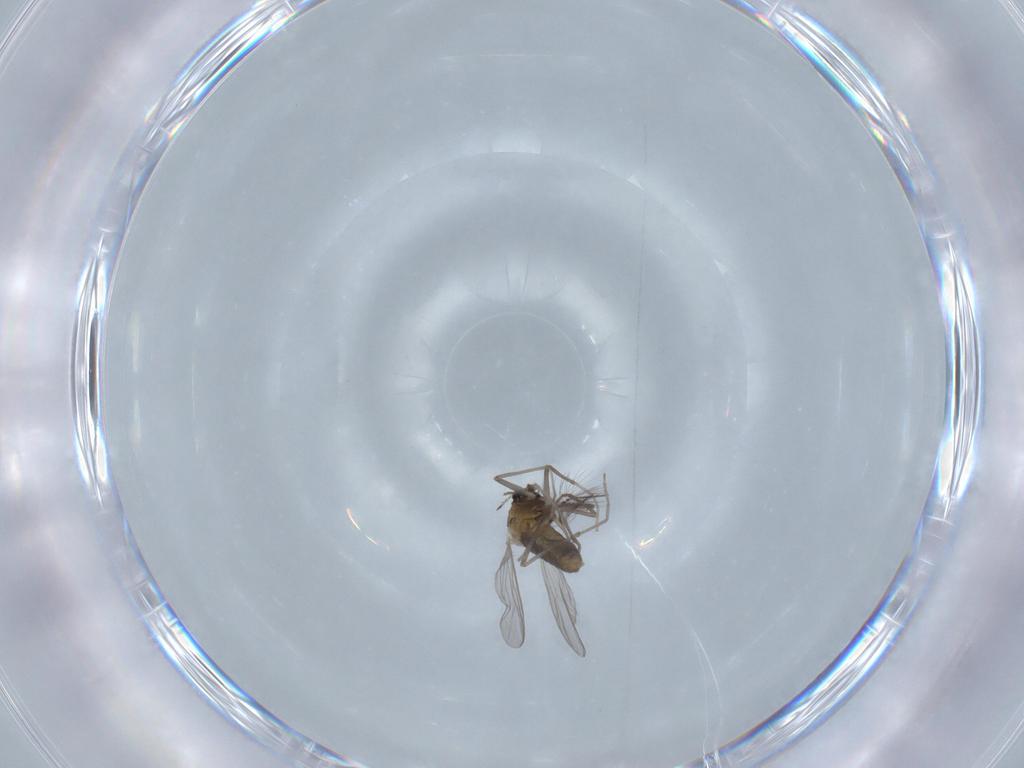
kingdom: Animalia
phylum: Arthropoda
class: Insecta
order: Diptera
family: Chironomidae
